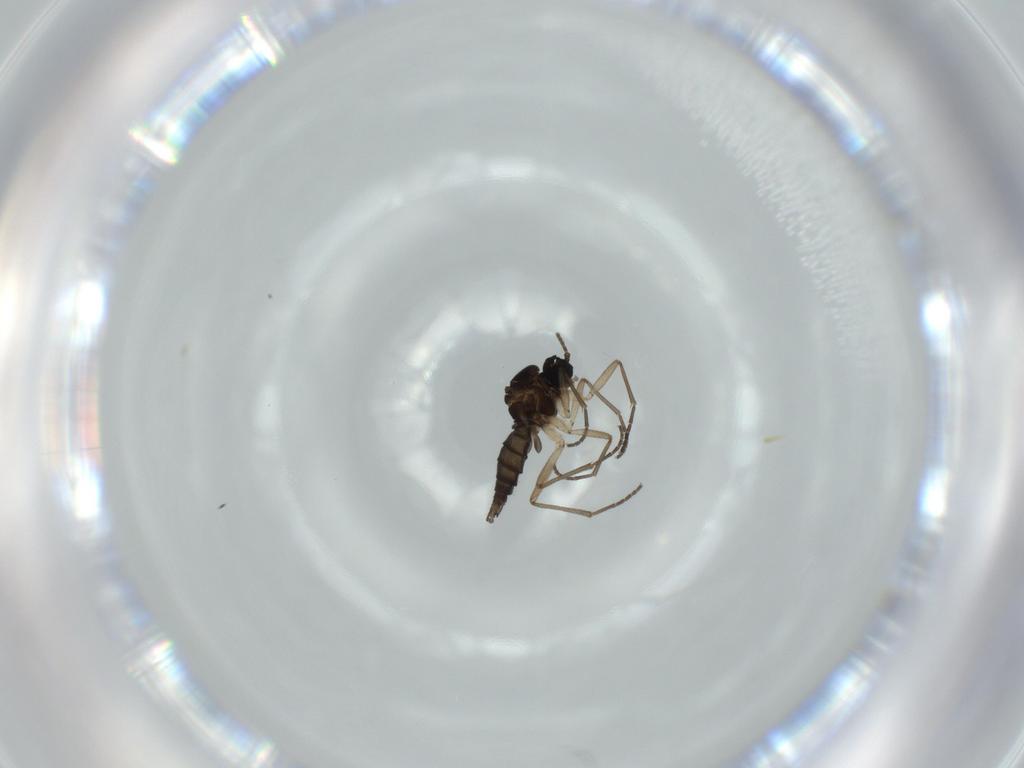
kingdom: Animalia
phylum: Arthropoda
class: Insecta
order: Diptera
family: Sciaridae
